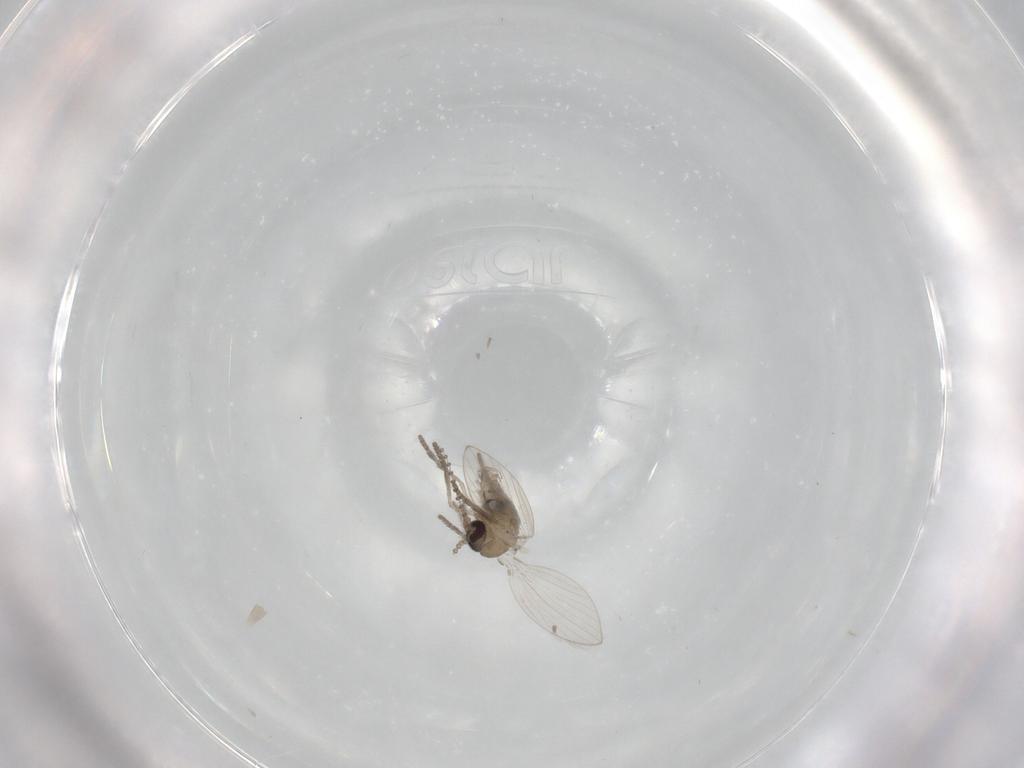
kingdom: Animalia
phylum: Arthropoda
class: Insecta
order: Diptera
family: Psychodidae
